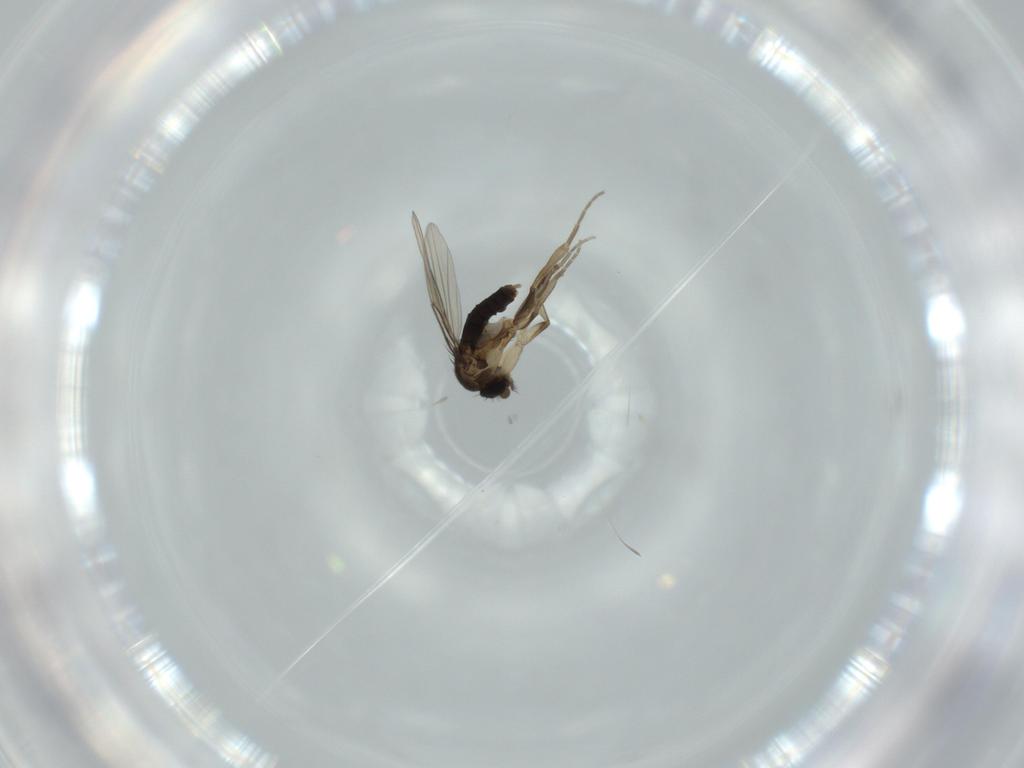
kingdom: Animalia
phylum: Arthropoda
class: Insecta
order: Diptera
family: Phoridae
